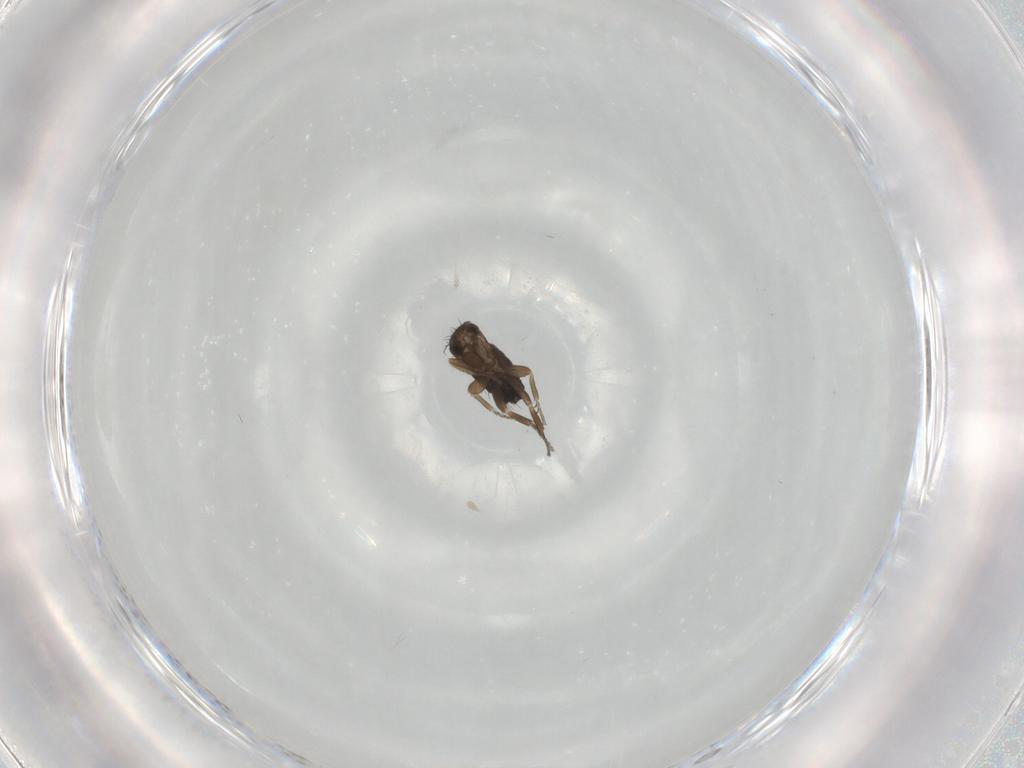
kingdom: Animalia
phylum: Arthropoda
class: Insecta
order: Diptera
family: Phoridae
